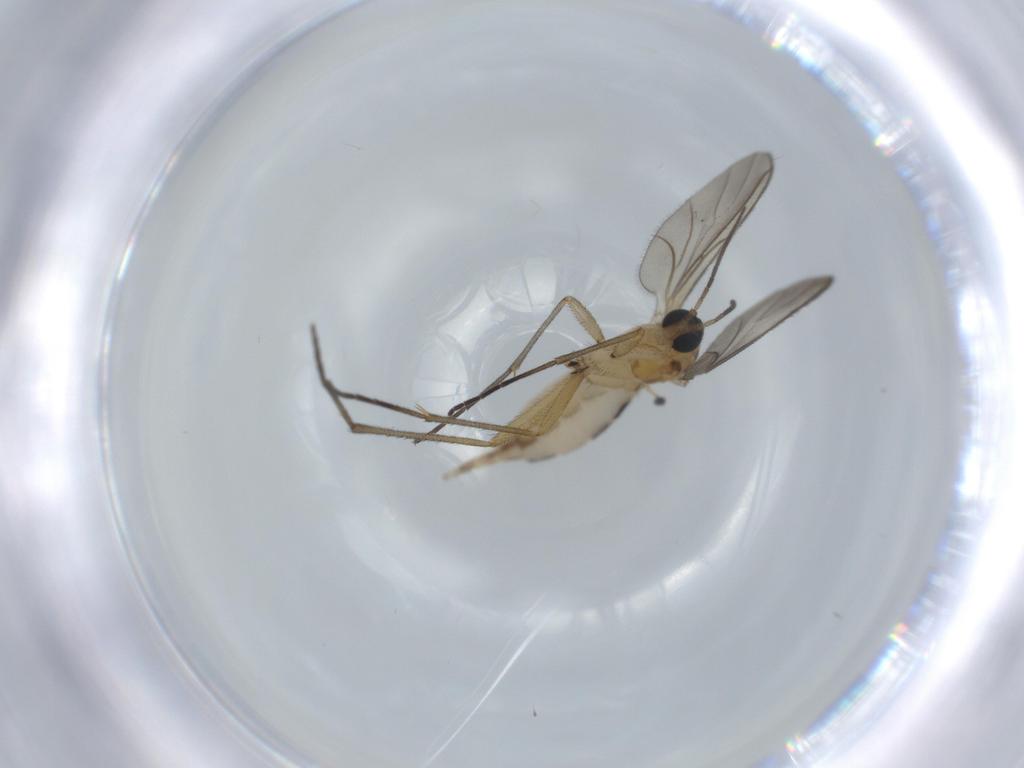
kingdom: Animalia
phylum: Arthropoda
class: Insecta
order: Diptera
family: Sciaridae
